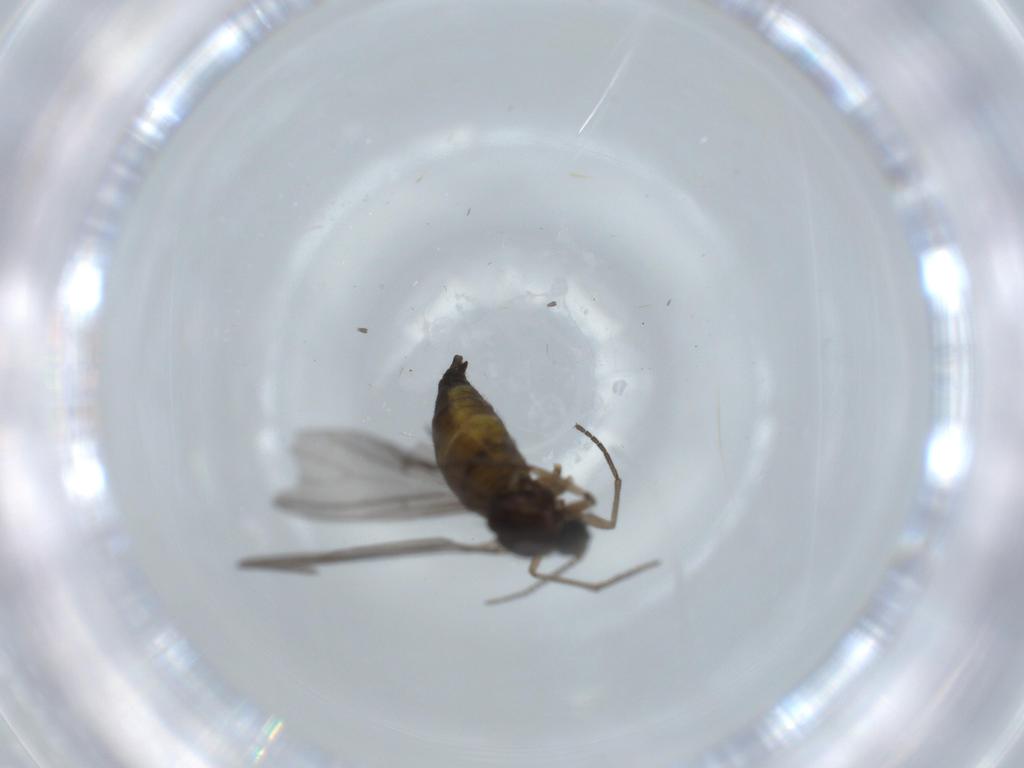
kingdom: Animalia
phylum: Arthropoda
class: Insecta
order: Diptera
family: Sciaridae
